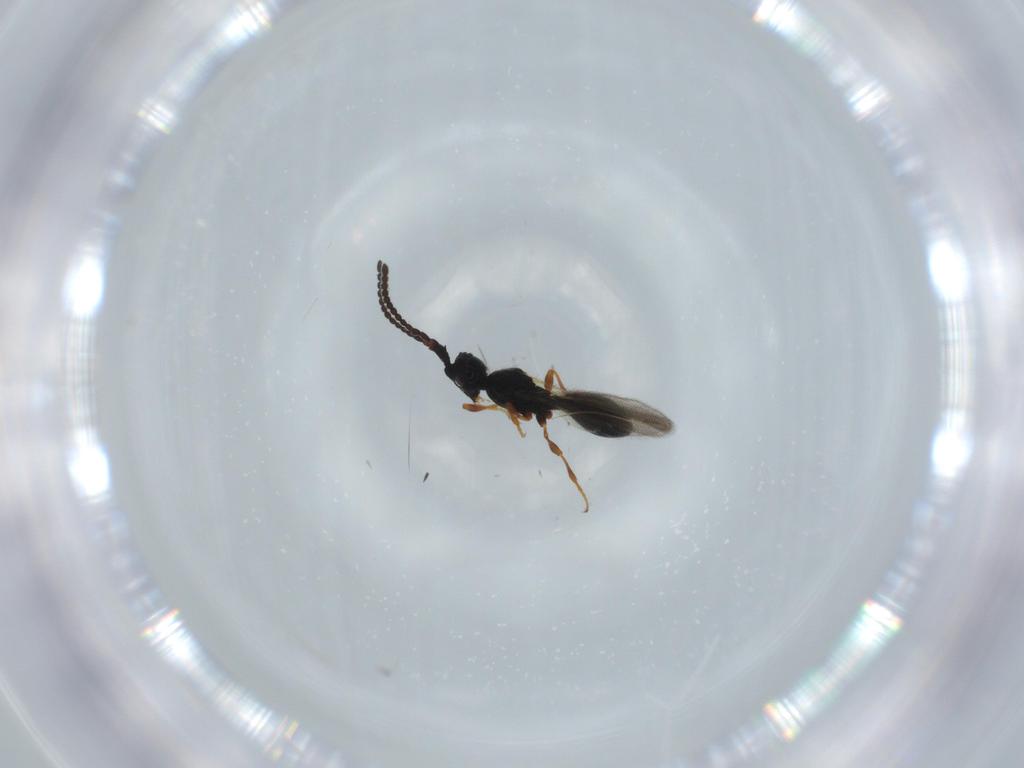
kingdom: Animalia
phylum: Arthropoda
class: Insecta
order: Hymenoptera
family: Diapriidae
